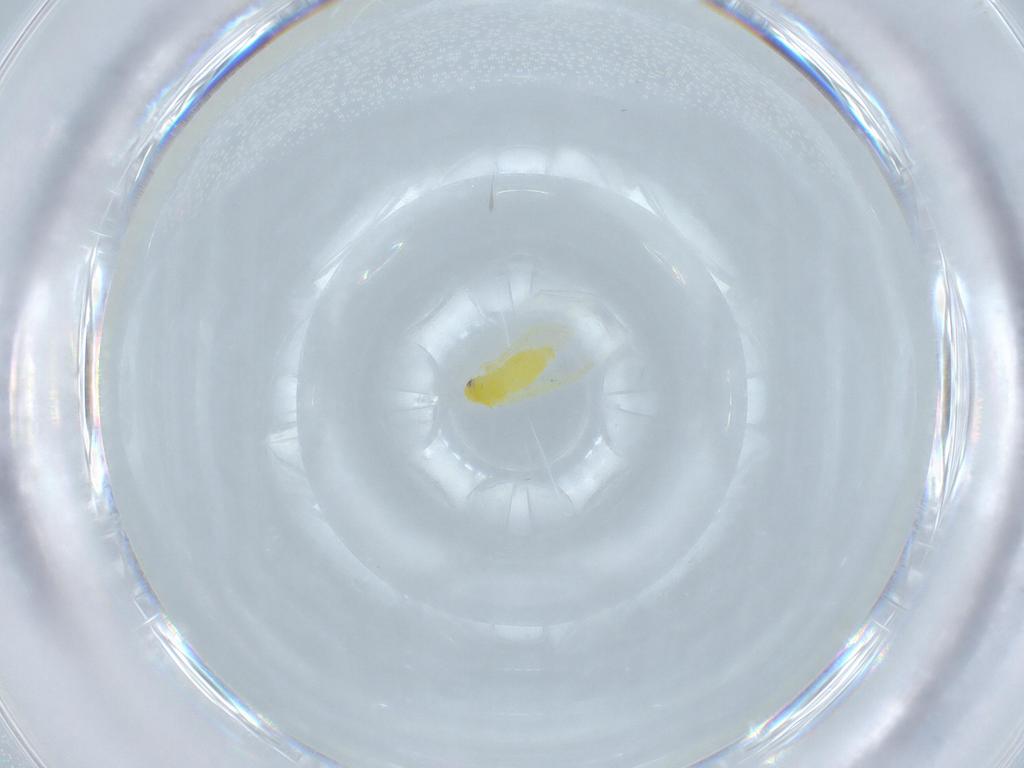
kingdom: Animalia
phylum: Arthropoda
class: Insecta
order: Hemiptera
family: Aleyrodidae
